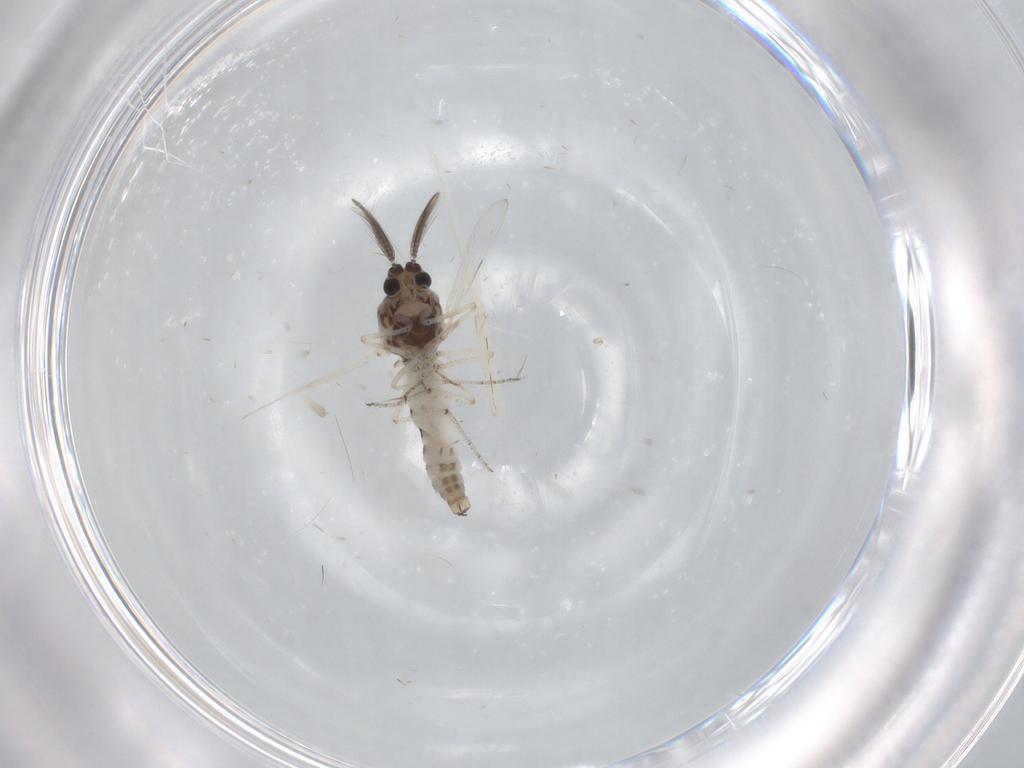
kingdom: Animalia
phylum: Arthropoda
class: Insecta
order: Diptera
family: Ceratopogonidae
